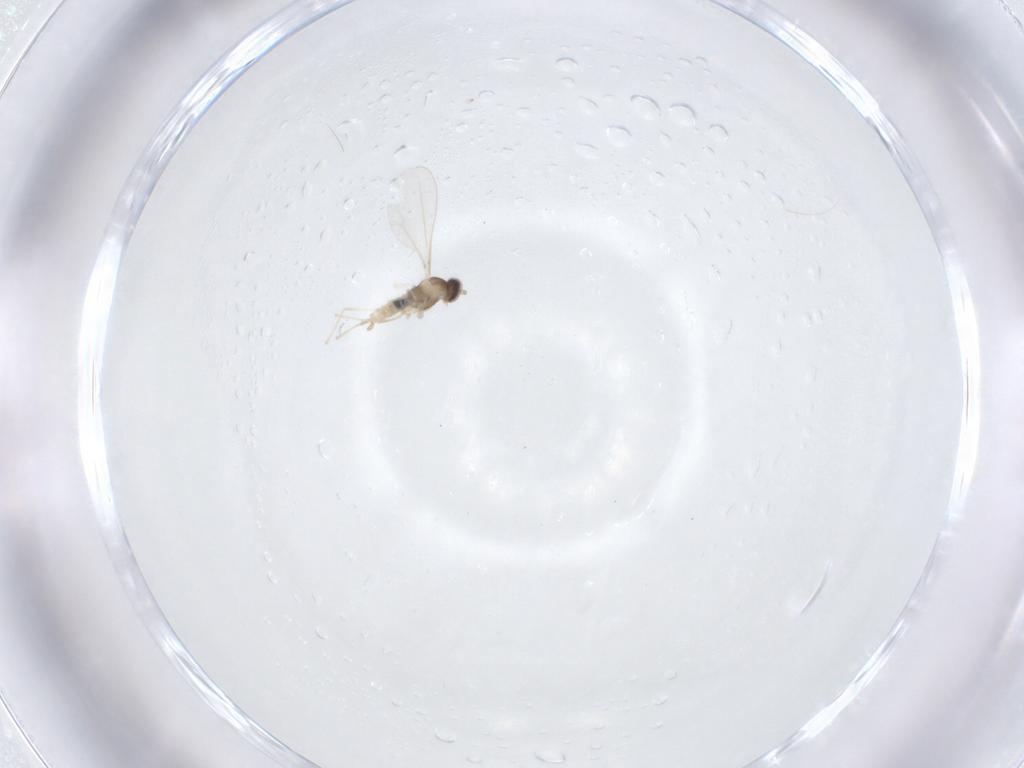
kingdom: Animalia
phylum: Arthropoda
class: Insecta
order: Diptera
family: Cecidomyiidae
